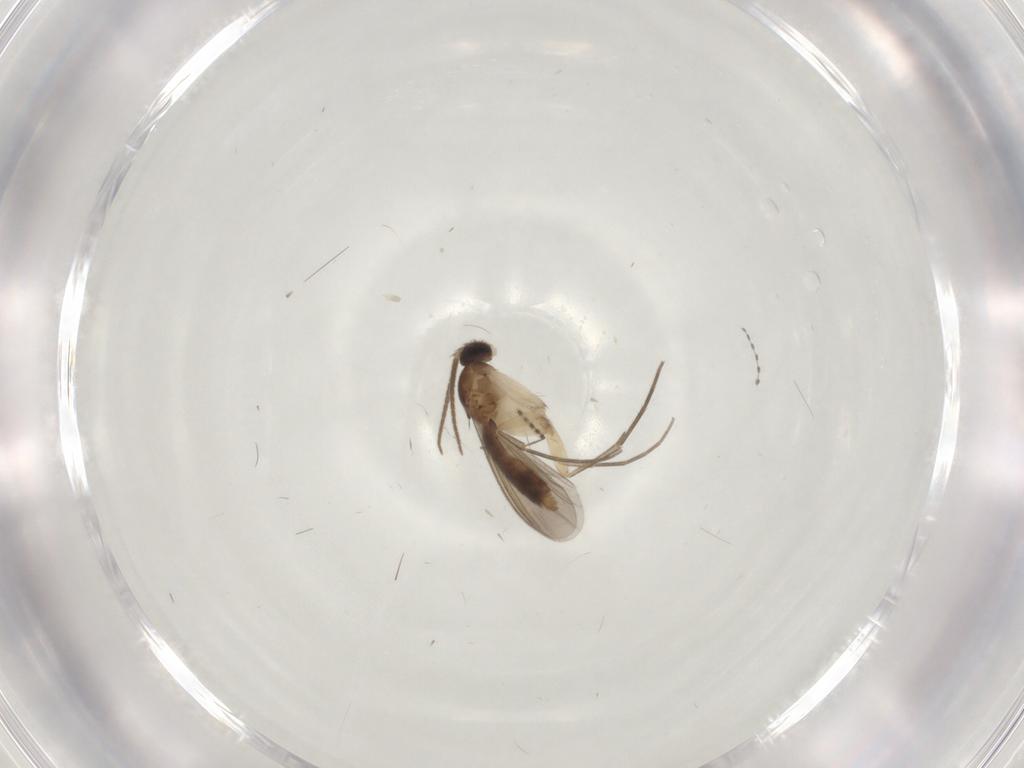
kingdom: Animalia
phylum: Arthropoda
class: Insecta
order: Diptera
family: Mycetophilidae
